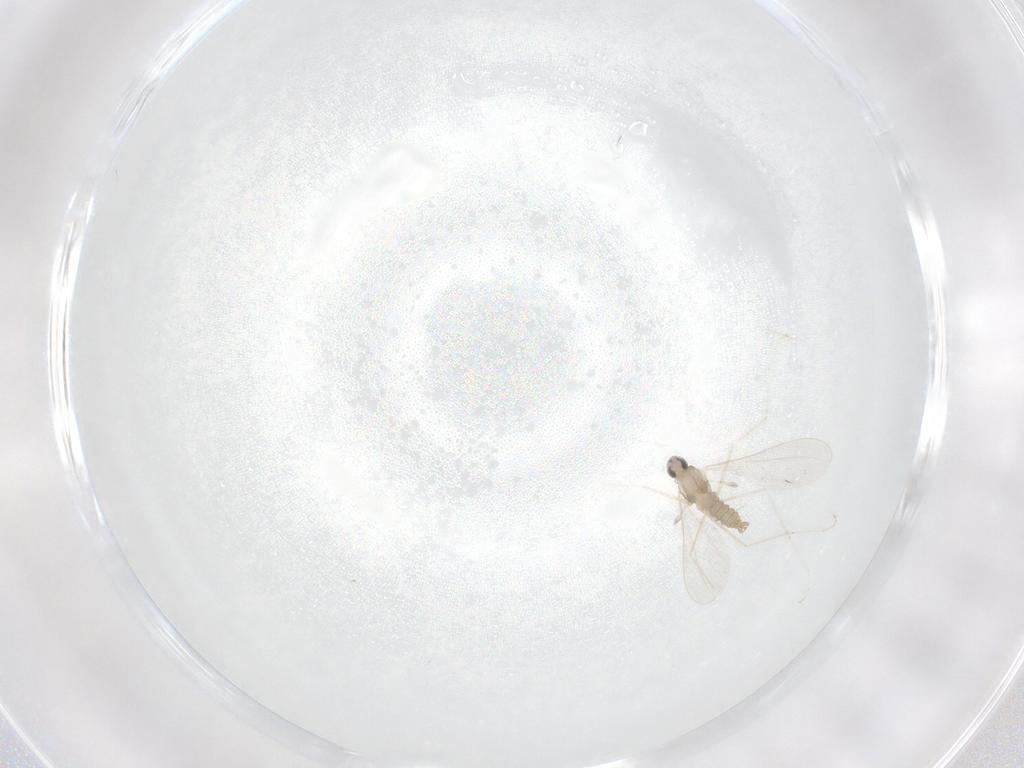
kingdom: Animalia
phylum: Arthropoda
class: Insecta
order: Diptera
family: Cecidomyiidae
